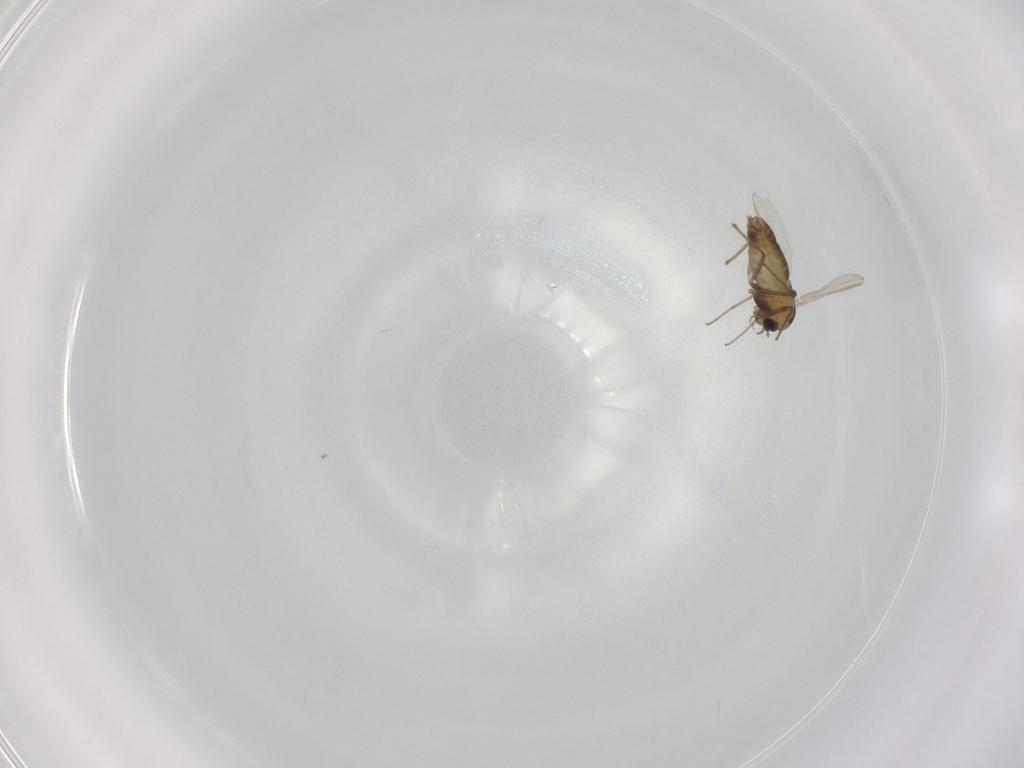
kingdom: Animalia
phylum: Arthropoda
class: Insecta
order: Diptera
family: Chironomidae
